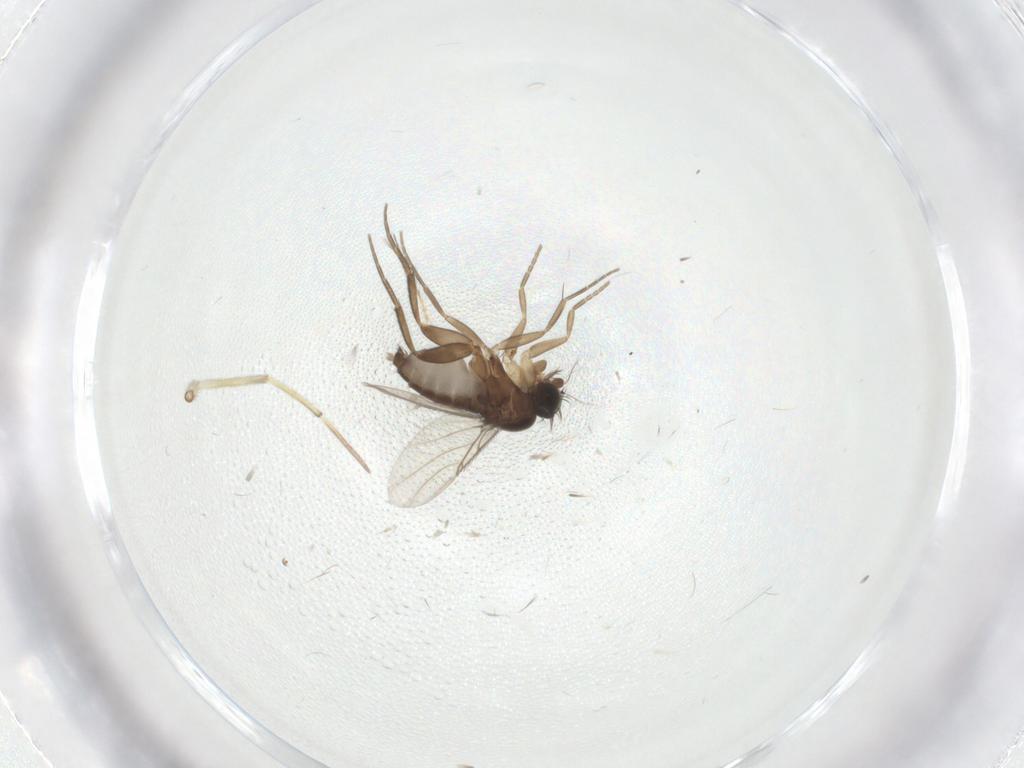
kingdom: Animalia
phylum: Arthropoda
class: Insecta
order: Diptera
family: Phoridae
